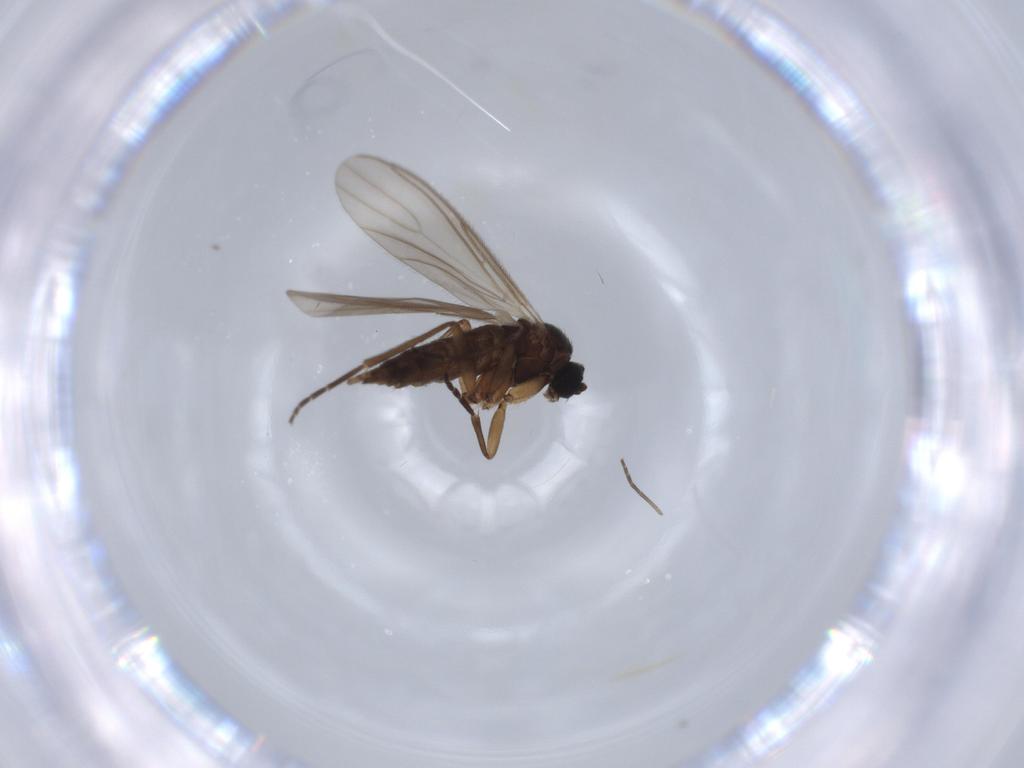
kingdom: Animalia
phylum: Arthropoda
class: Insecta
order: Diptera
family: Sciaridae
